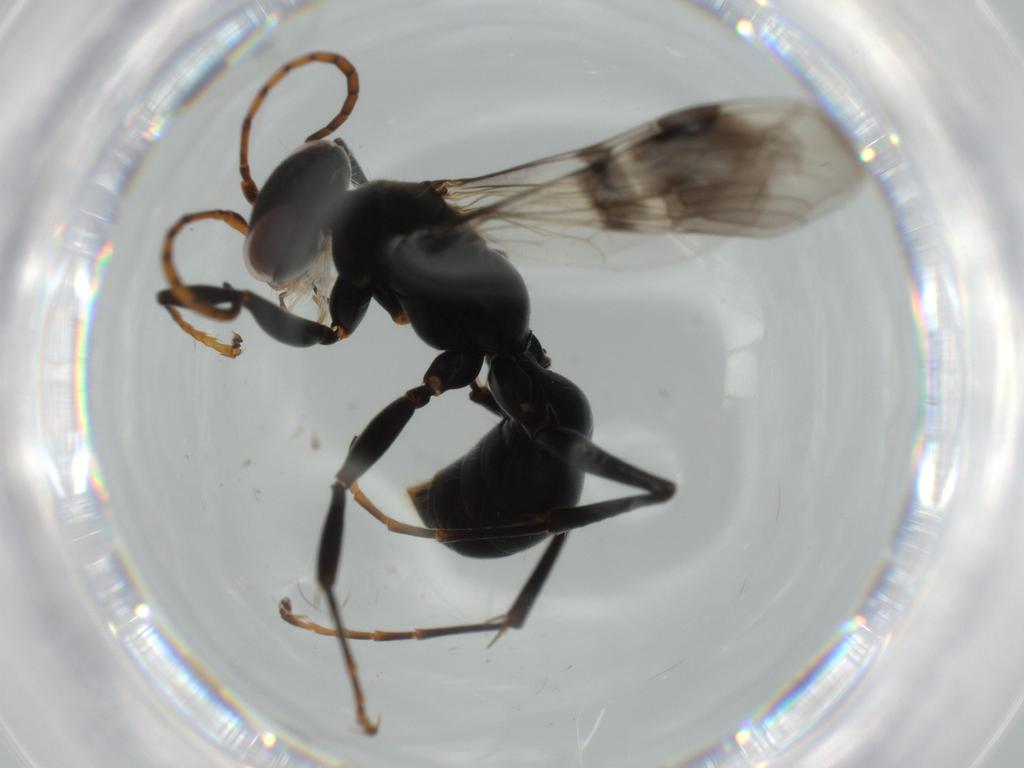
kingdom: Animalia
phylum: Arthropoda
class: Insecta
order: Hymenoptera
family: Pompilidae
